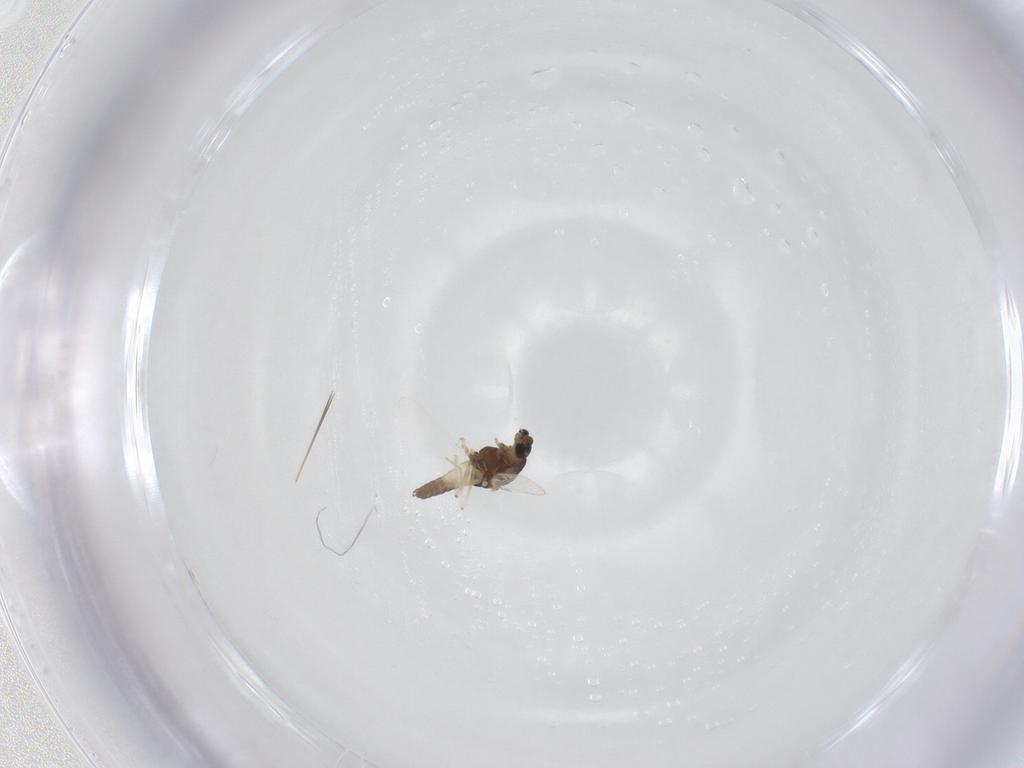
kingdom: Animalia
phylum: Arthropoda
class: Insecta
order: Diptera
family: Chironomidae
